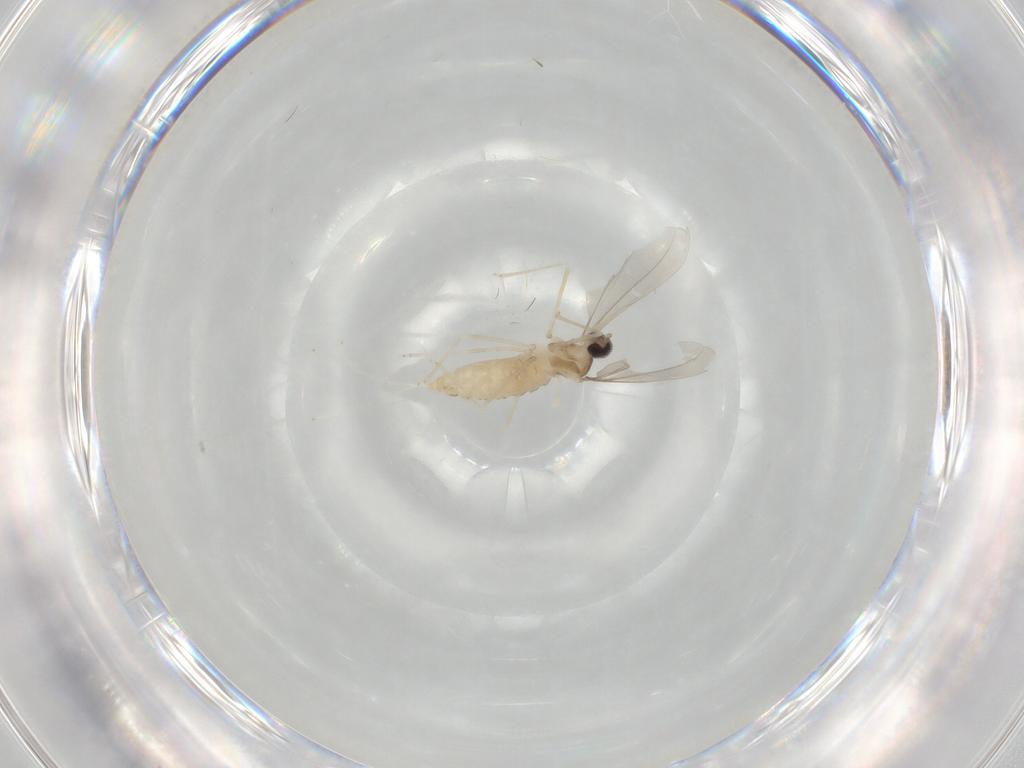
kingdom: Animalia
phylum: Arthropoda
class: Insecta
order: Diptera
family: Cecidomyiidae
